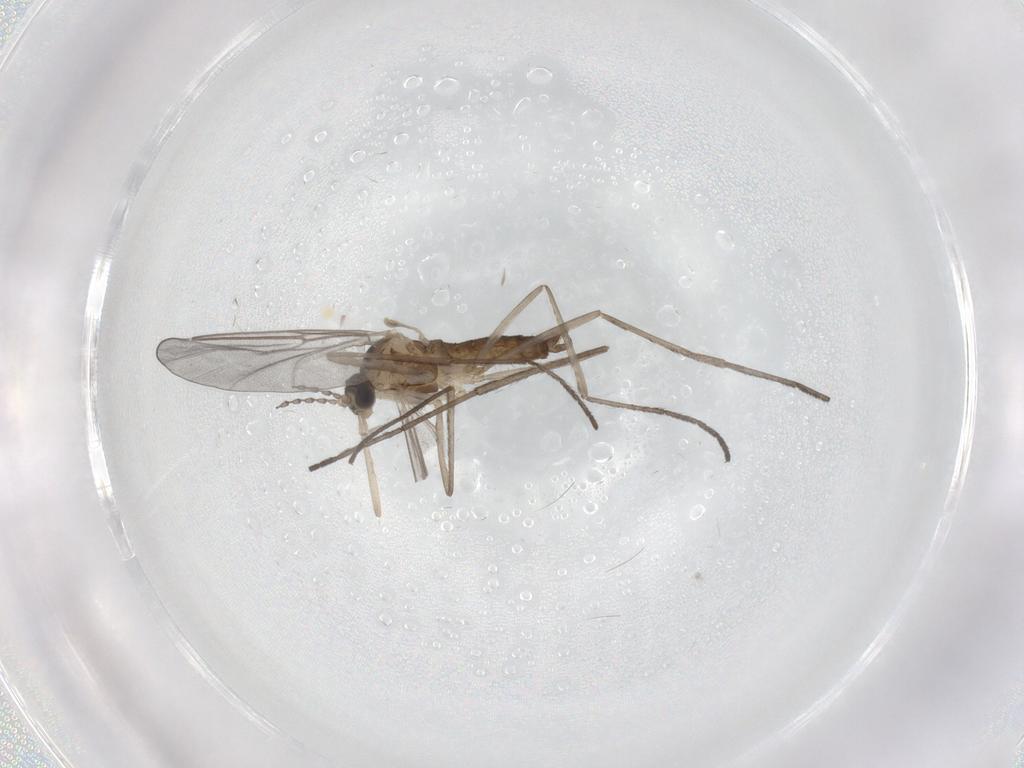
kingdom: Animalia
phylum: Arthropoda
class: Insecta
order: Diptera
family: Cecidomyiidae
